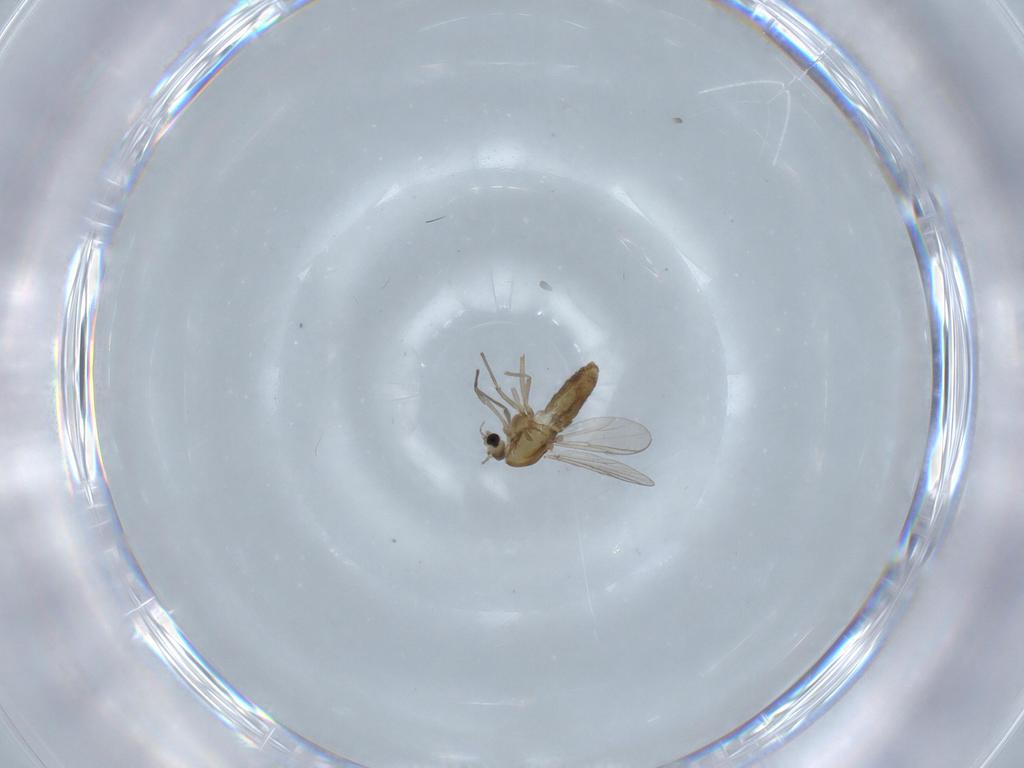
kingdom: Animalia
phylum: Arthropoda
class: Insecta
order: Diptera
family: Chironomidae
